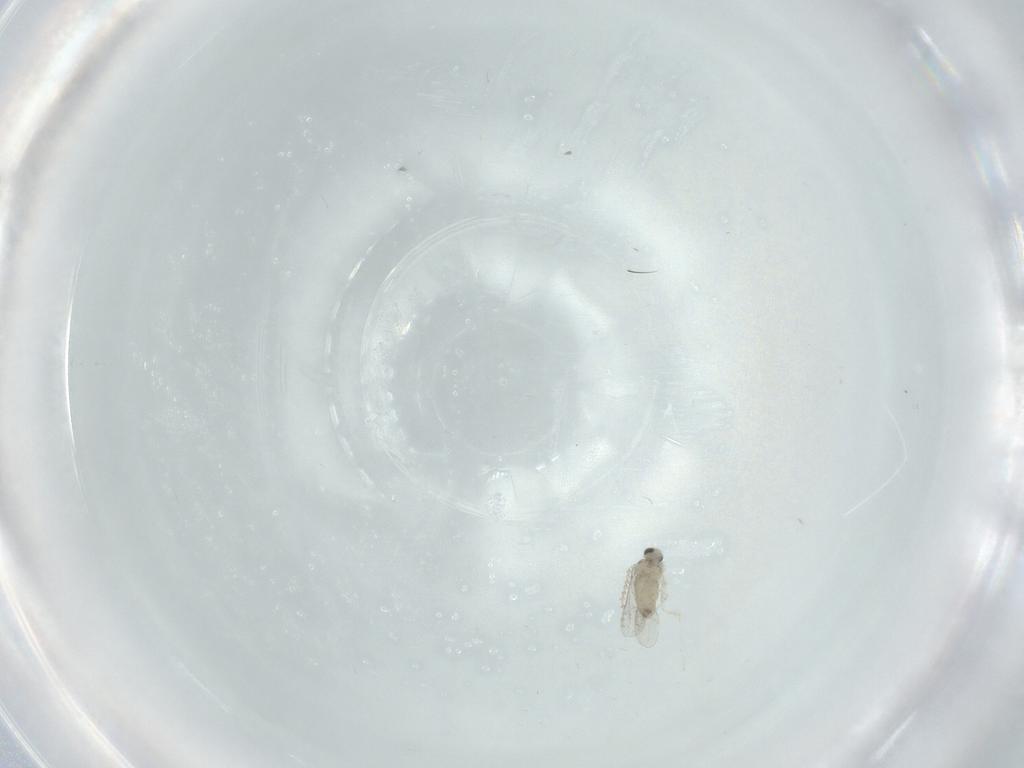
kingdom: Animalia
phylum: Arthropoda
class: Insecta
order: Diptera
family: Cecidomyiidae
